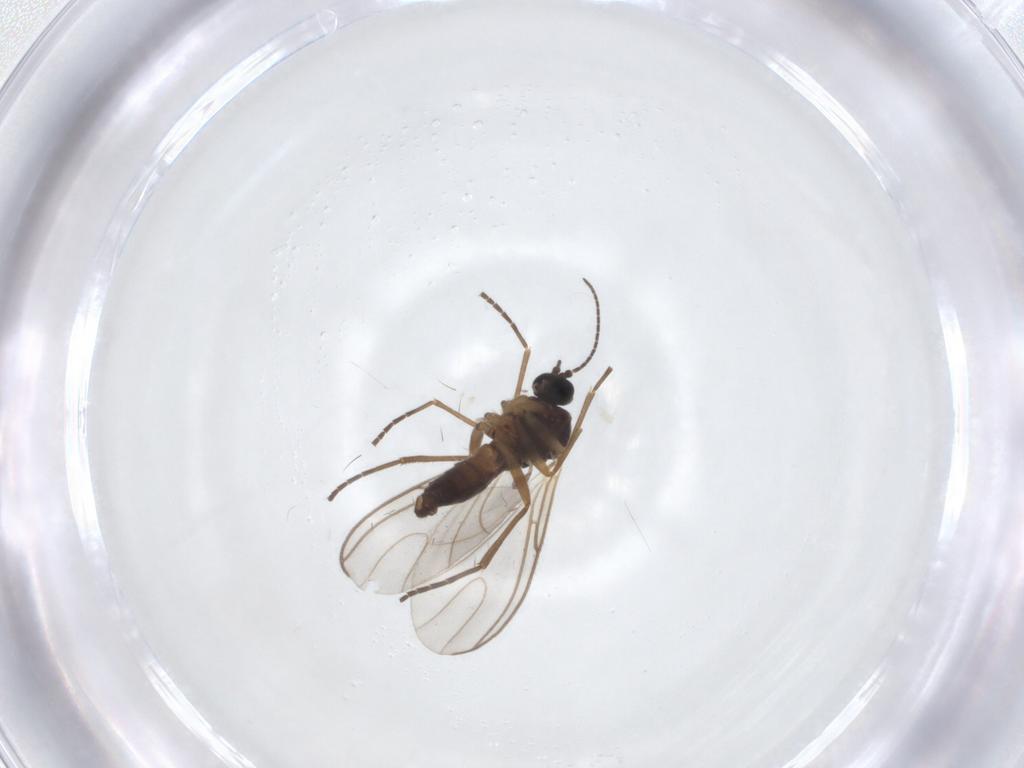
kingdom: Animalia
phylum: Arthropoda
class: Insecta
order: Diptera
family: Sciaridae
